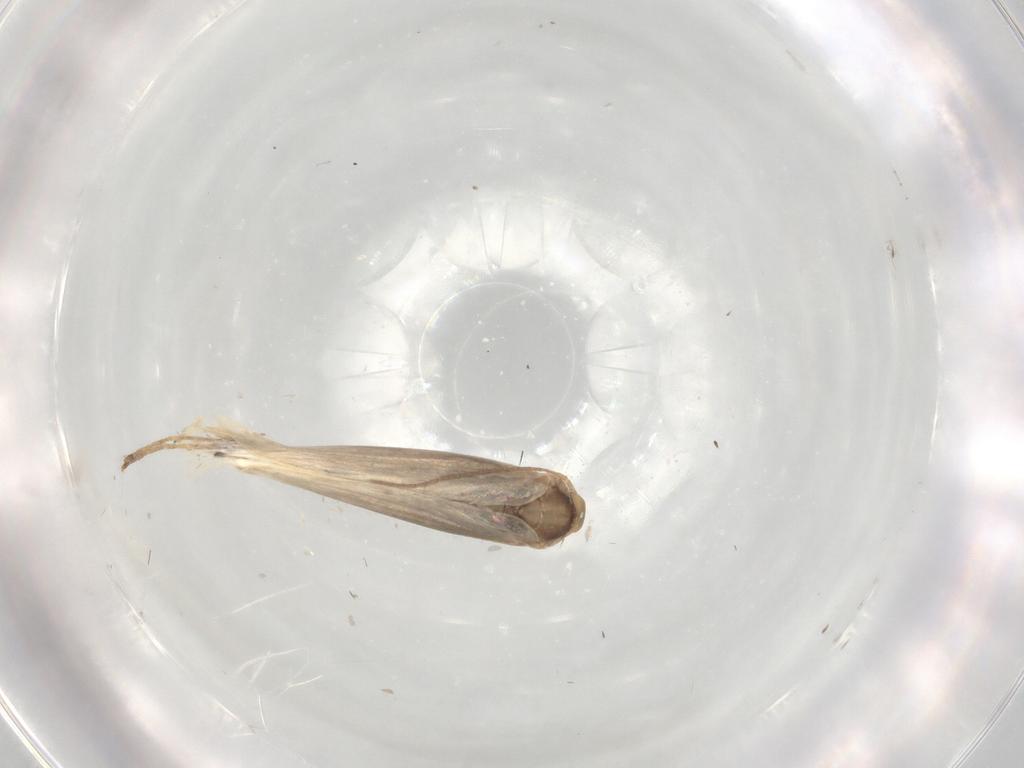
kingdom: Animalia
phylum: Arthropoda
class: Insecta
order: Lepidoptera
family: Gracillariidae
